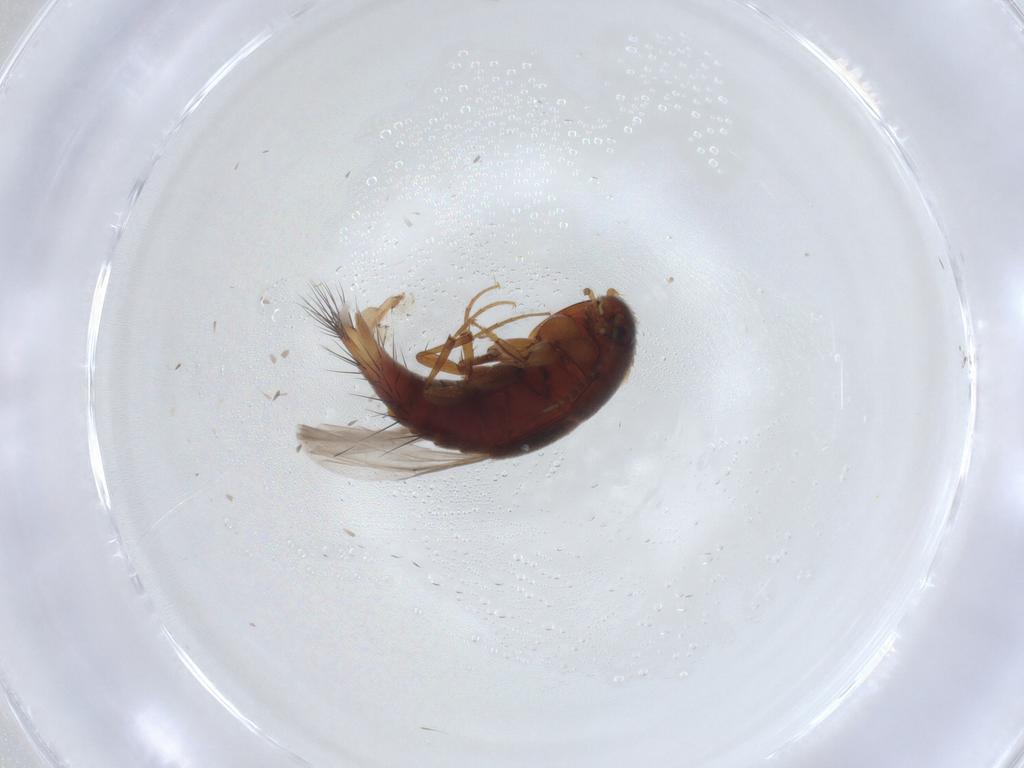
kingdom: Animalia
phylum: Arthropoda
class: Insecta
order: Coleoptera
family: Staphylinidae
